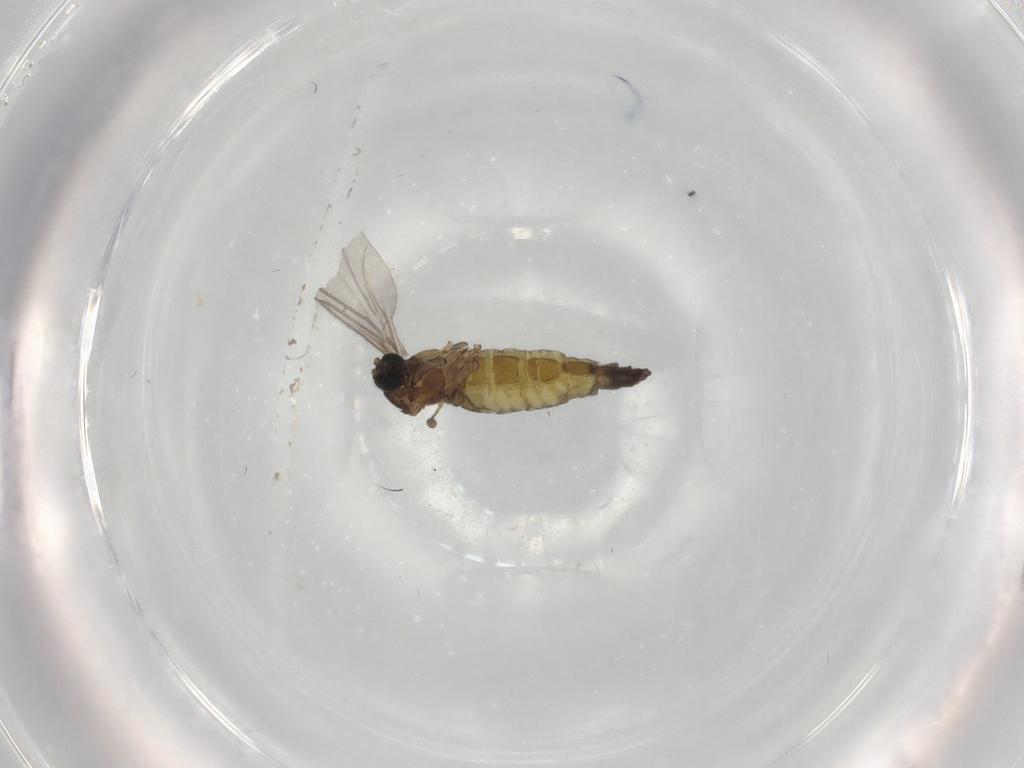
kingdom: Animalia
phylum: Arthropoda
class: Insecta
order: Diptera
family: Sciaridae
